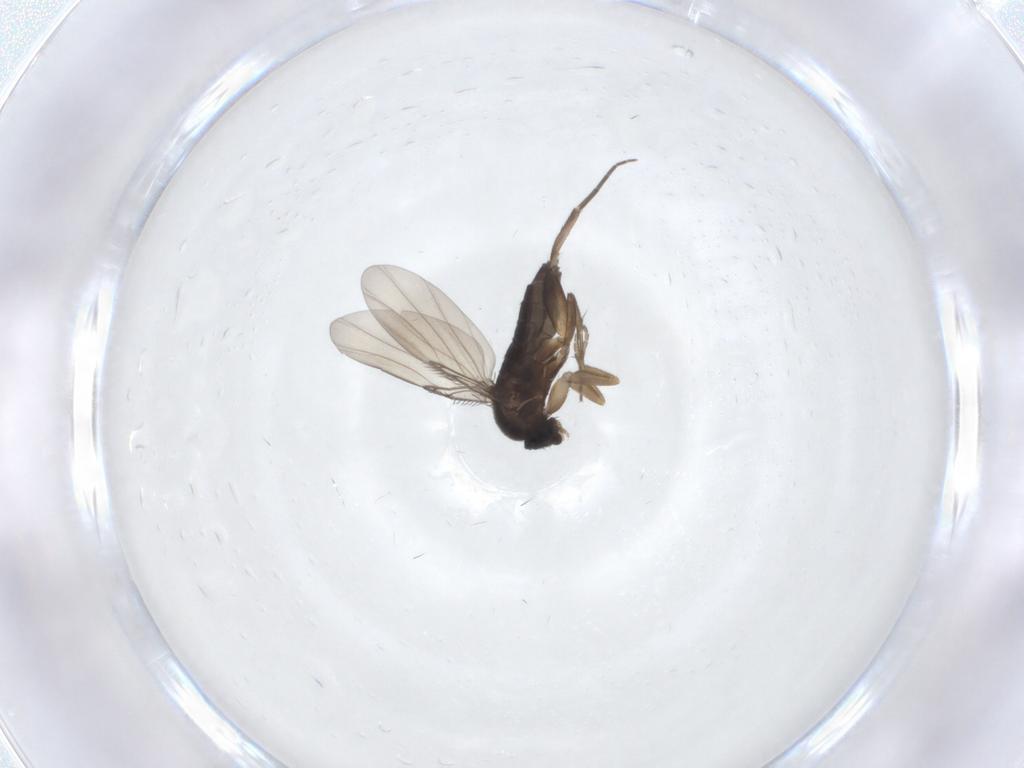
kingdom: Animalia
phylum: Arthropoda
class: Insecta
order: Diptera
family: Phoridae
